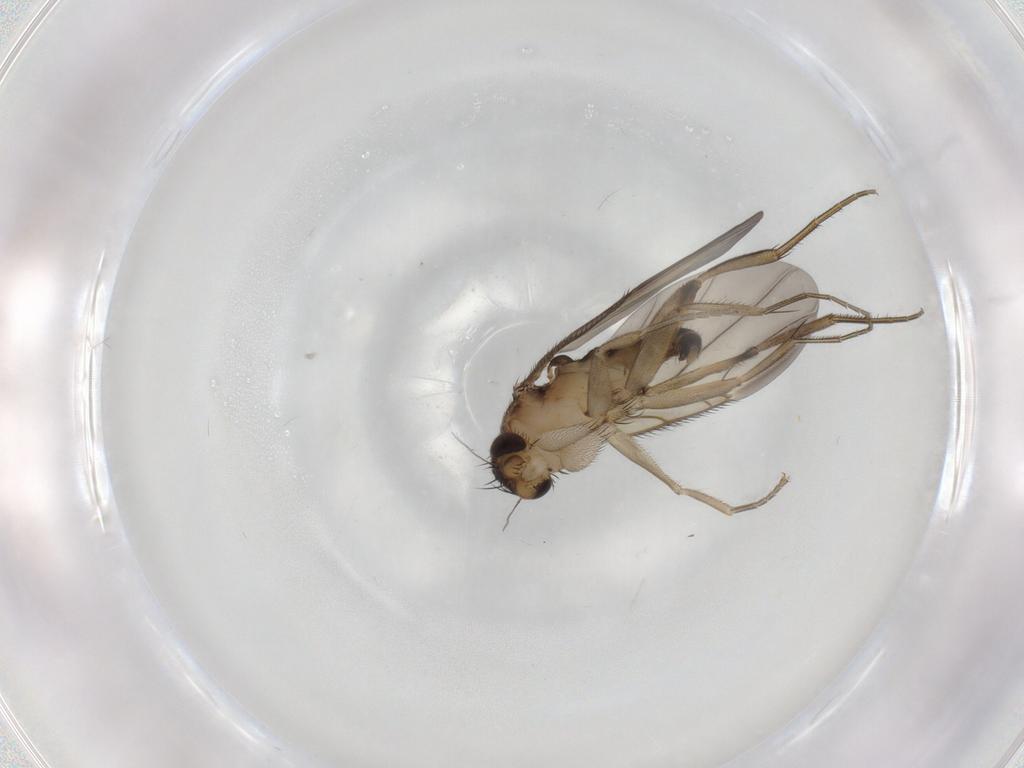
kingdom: Animalia
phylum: Arthropoda
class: Insecta
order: Diptera
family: Phoridae
